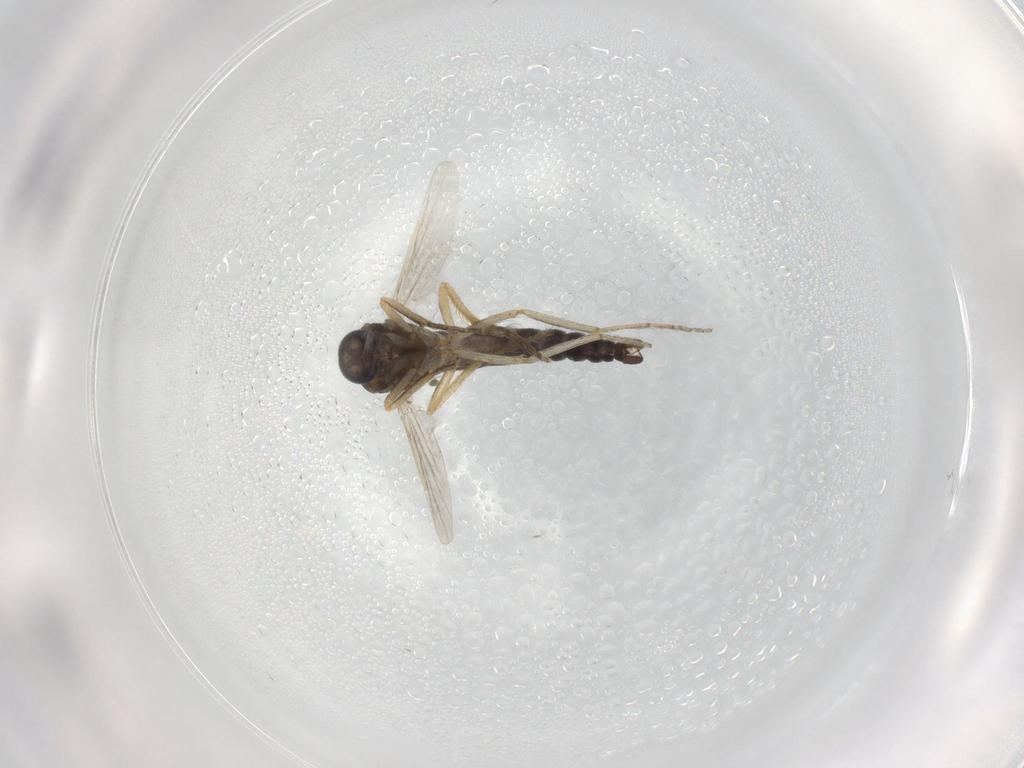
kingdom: Animalia
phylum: Arthropoda
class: Insecta
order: Diptera
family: Ceratopogonidae
